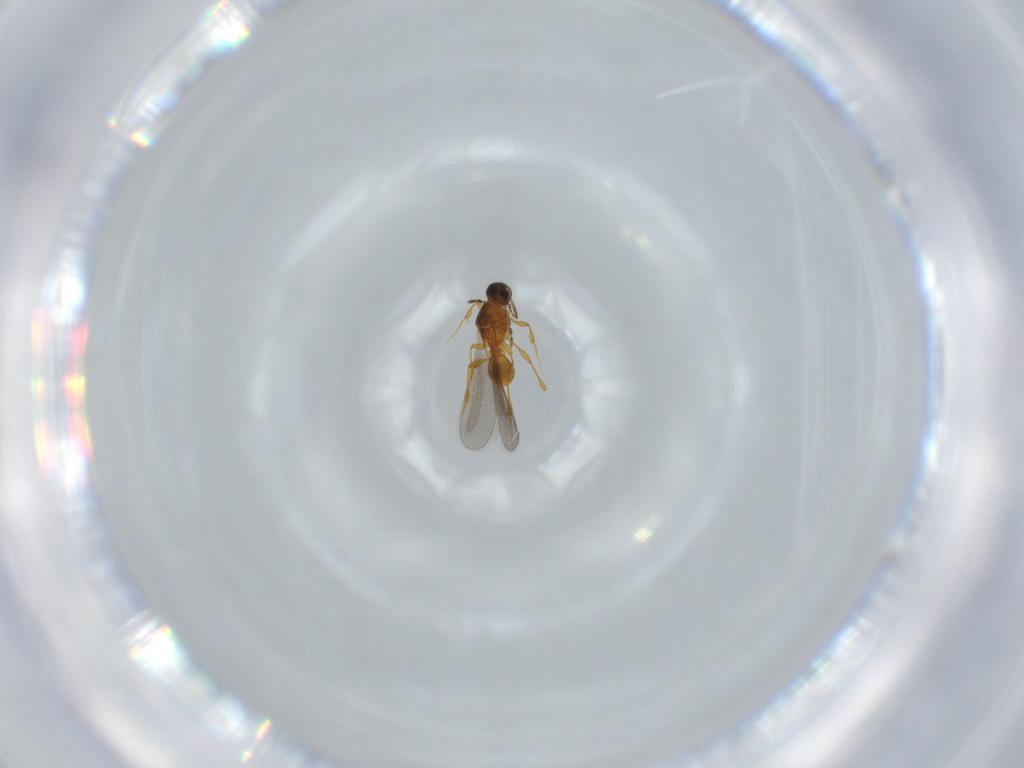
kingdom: Animalia
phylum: Arthropoda
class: Insecta
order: Hymenoptera
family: Platygastridae
